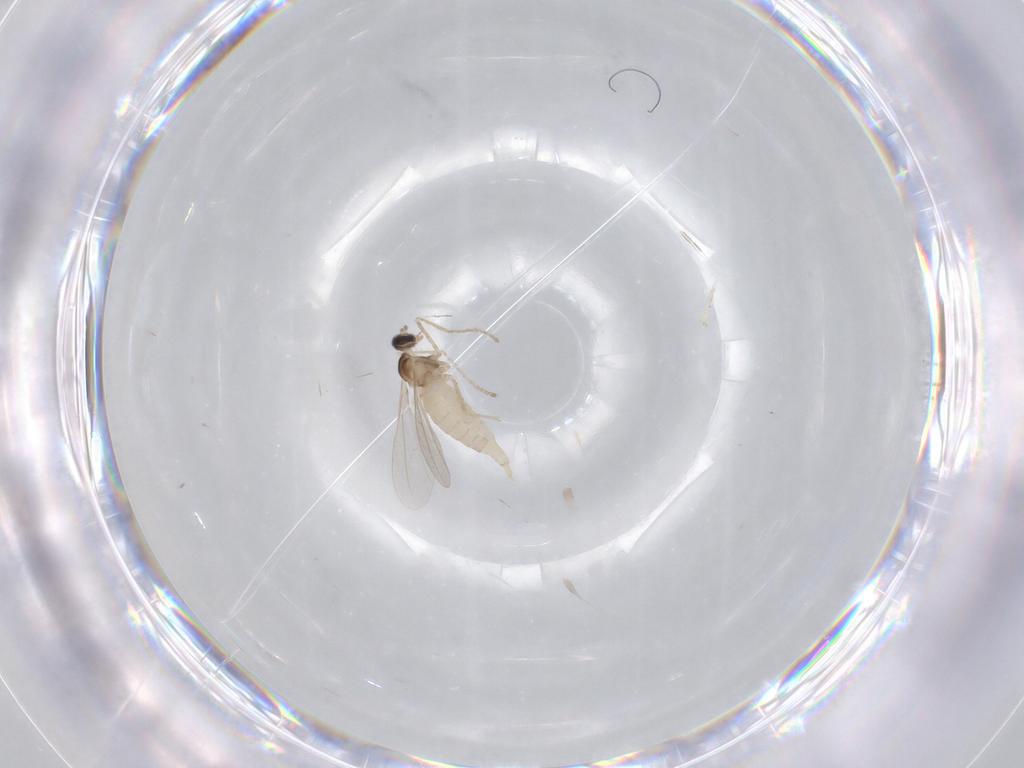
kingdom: Animalia
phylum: Arthropoda
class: Insecta
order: Diptera
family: Cecidomyiidae
